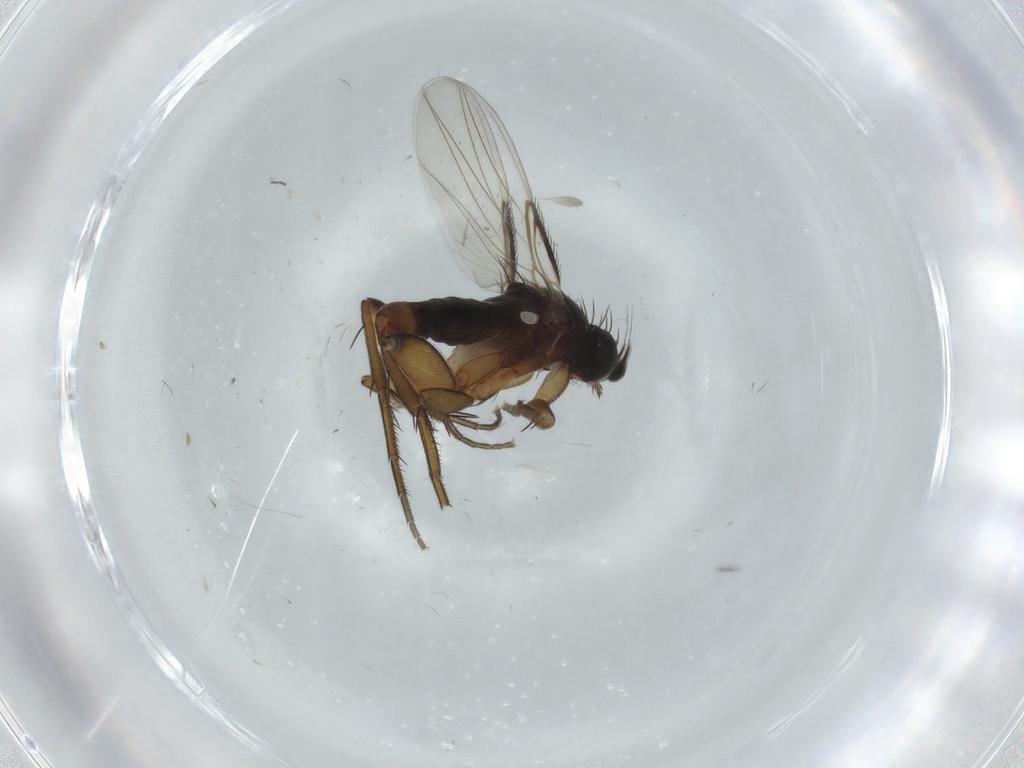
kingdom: Animalia
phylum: Arthropoda
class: Insecta
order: Diptera
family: Phoridae
